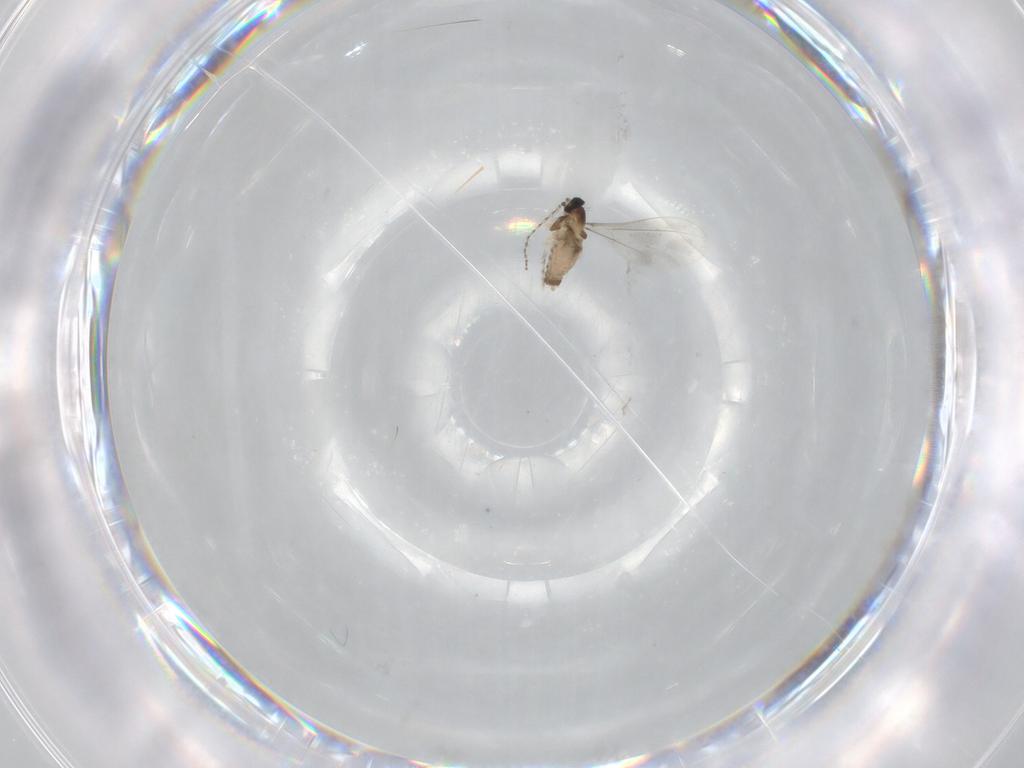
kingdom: Animalia
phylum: Arthropoda
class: Insecta
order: Diptera
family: Cecidomyiidae
